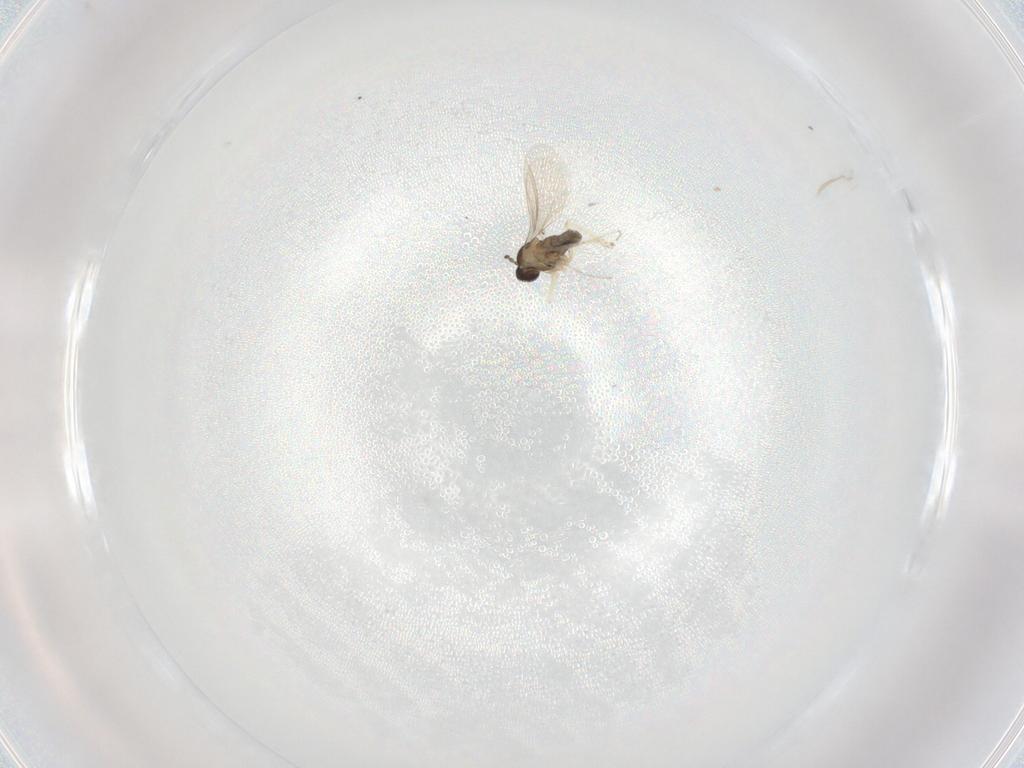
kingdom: Animalia
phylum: Arthropoda
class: Insecta
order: Diptera
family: Cecidomyiidae
